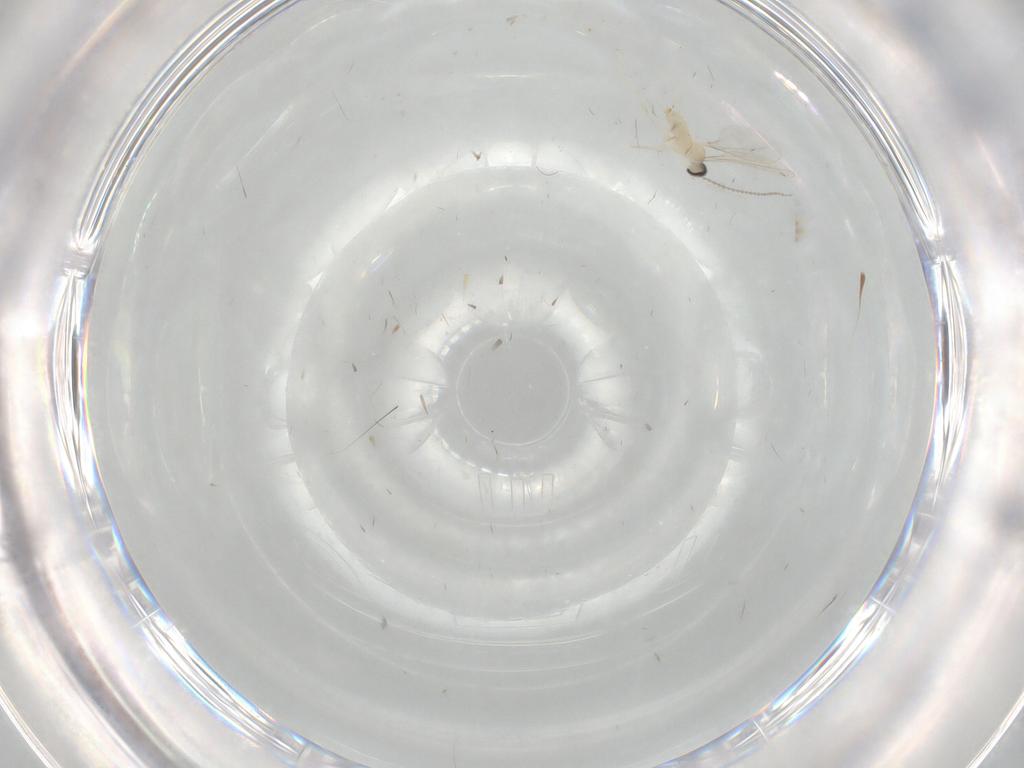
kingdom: Animalia
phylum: Arthropoda
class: Insecta
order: Diptera
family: Cecidomyiidae
